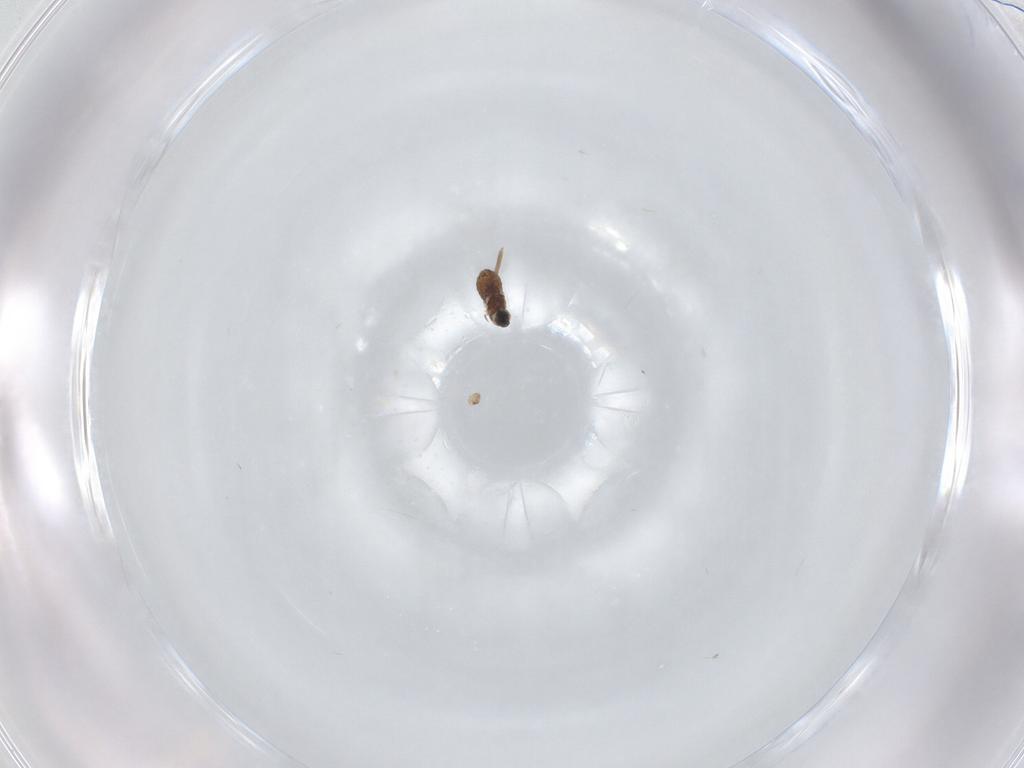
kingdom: Animalia
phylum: Arthropoda
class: Insecta
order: Diptera
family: Cecidomyiidae
